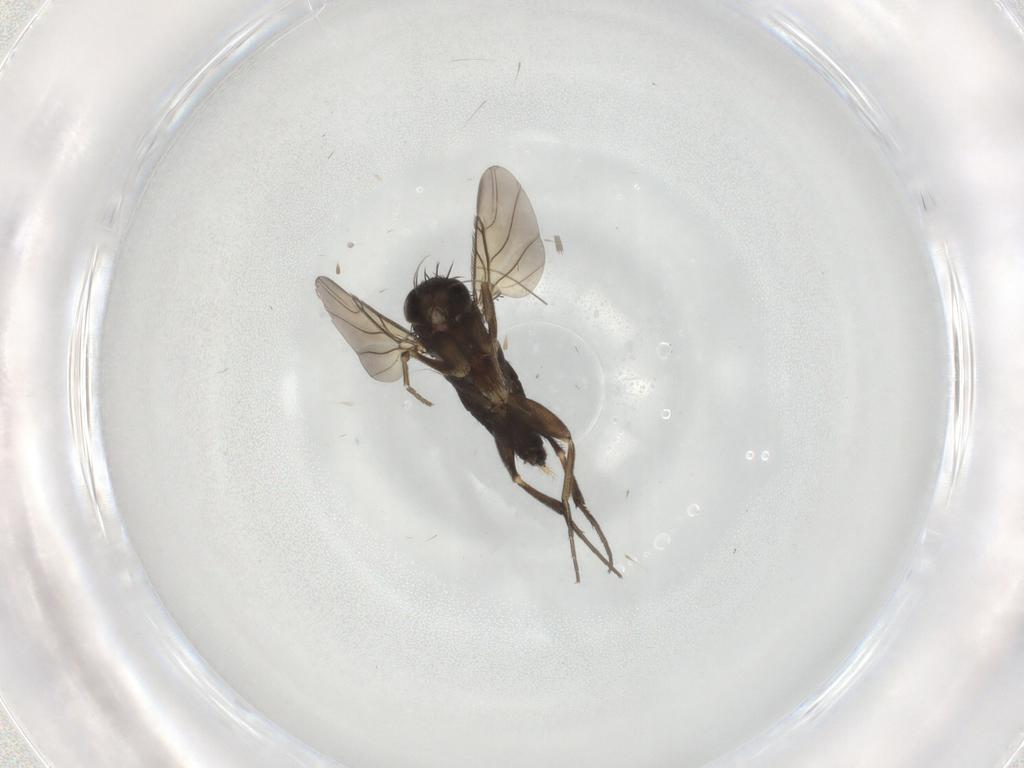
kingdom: Animalia
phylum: Arthropoda
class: Insecta
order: Diptera
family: Phoridae
